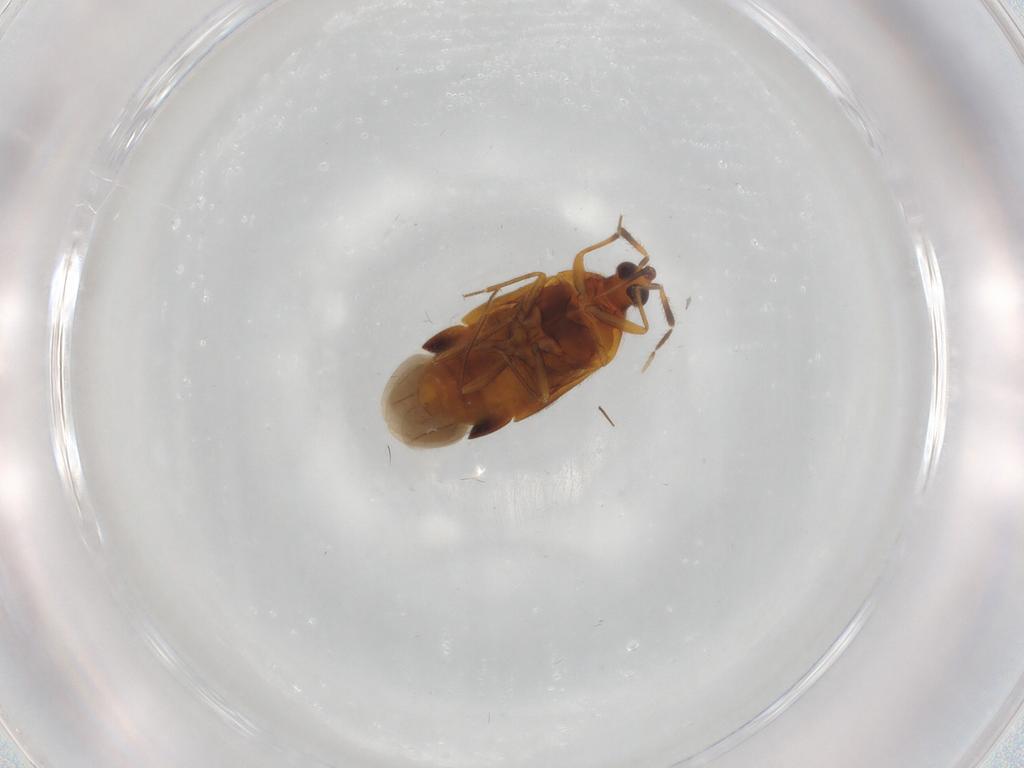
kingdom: Animalia
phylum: Arthropoda
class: Insecta
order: Hemiptera
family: Anthocoridae
